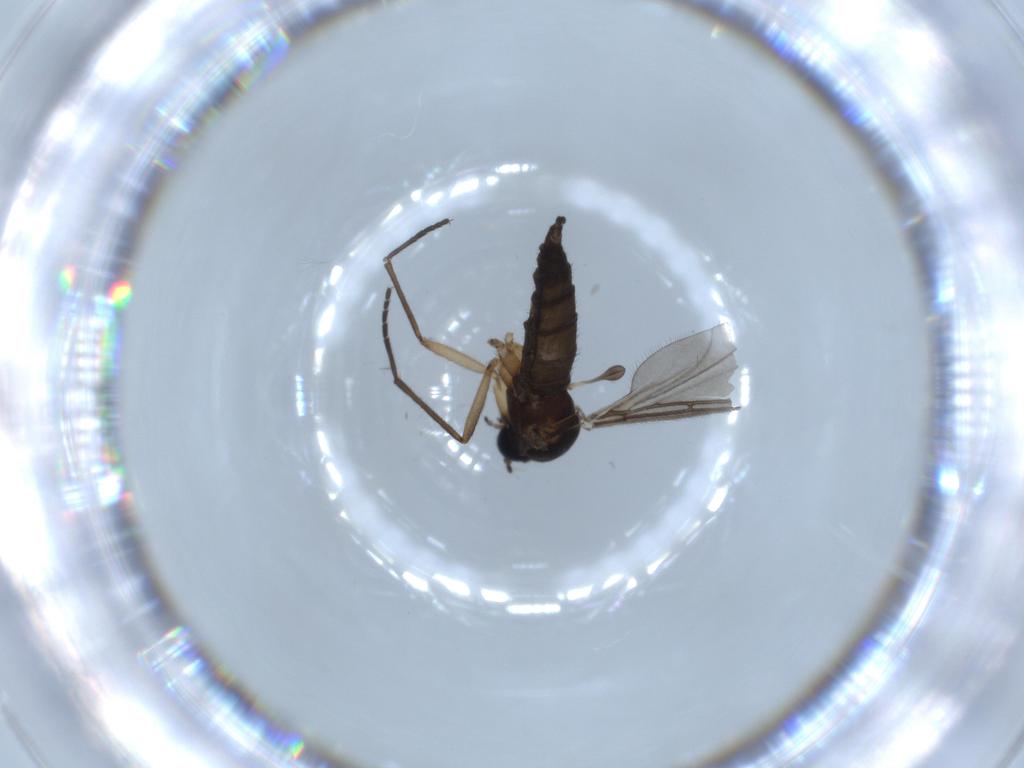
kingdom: Animalia
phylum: Arthropoda
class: Insecta
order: Diptera
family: Sciaridae
